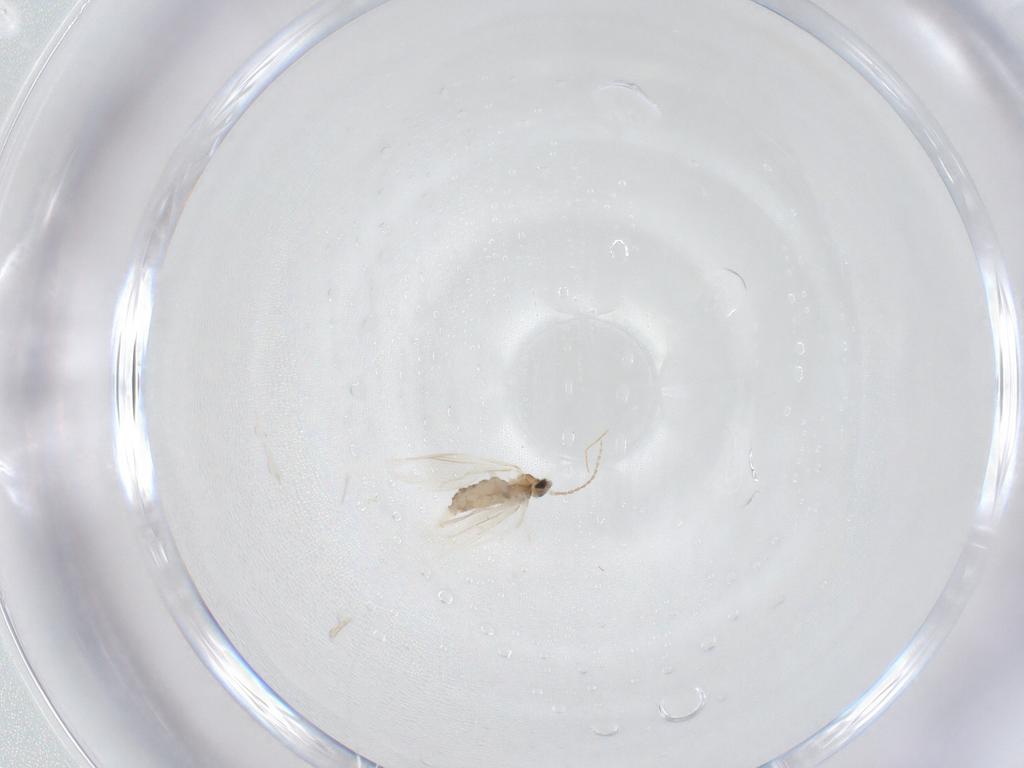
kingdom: Animalia
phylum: Arthropoda
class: Insecta
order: Diptera
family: Cecidomyiidae
